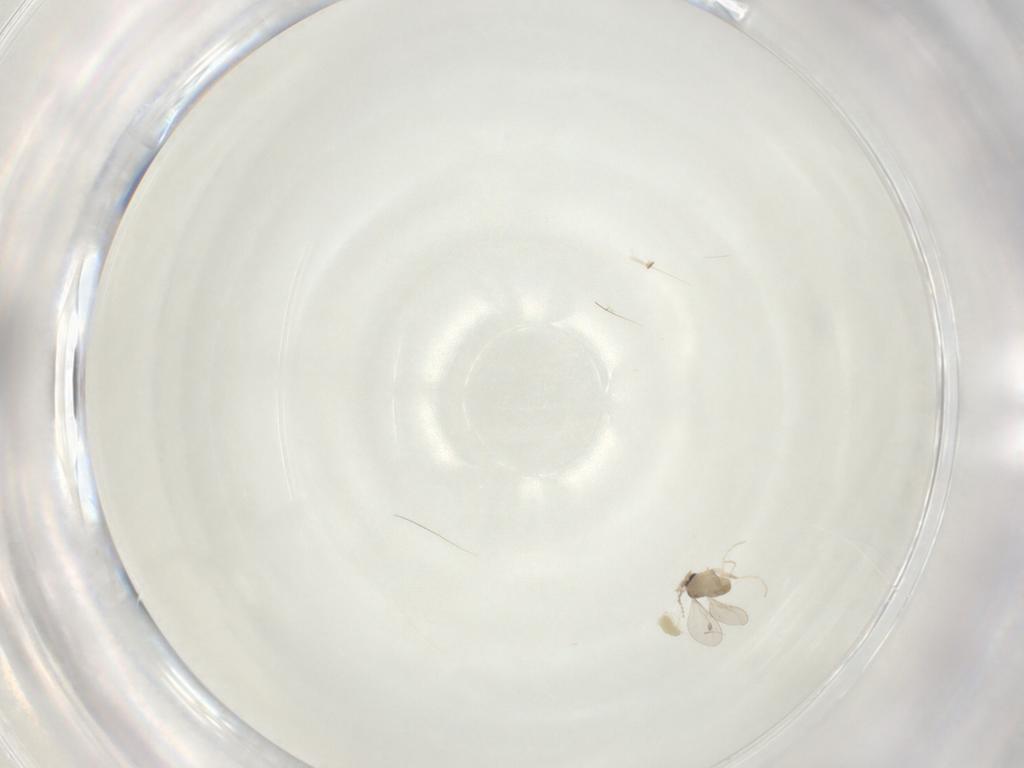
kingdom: Animalia
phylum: Arthropoda
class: Insecta
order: Diptera
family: Cecidomyiidae
